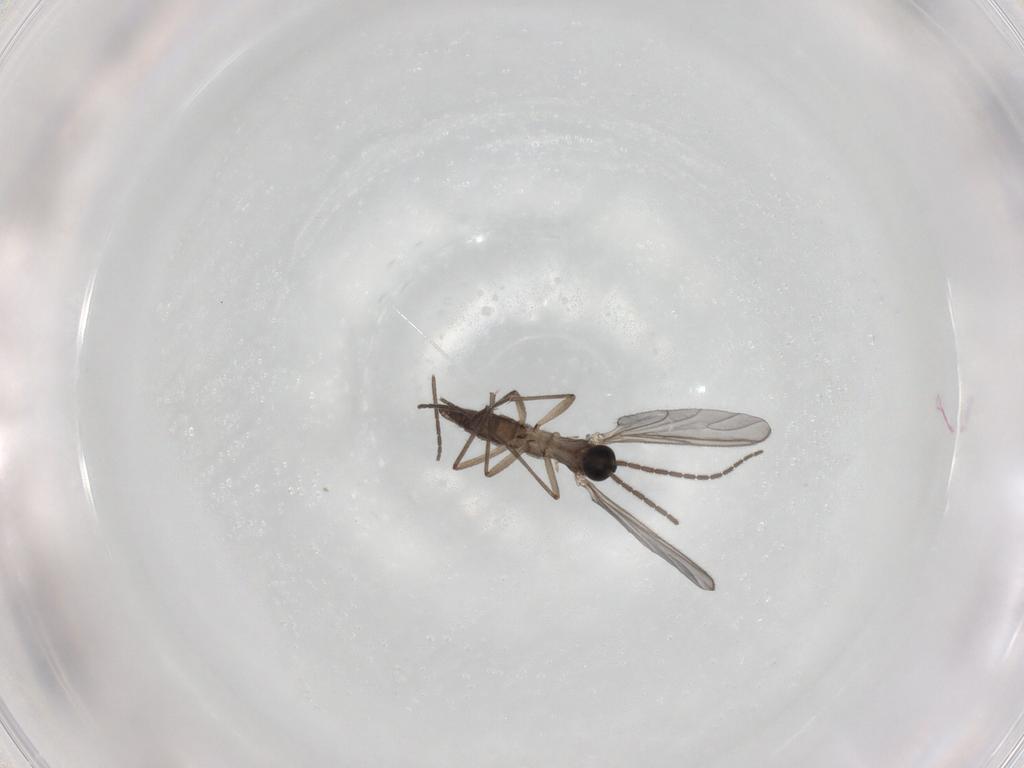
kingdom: Animalia
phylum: Arthropoda
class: Insecta
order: Diptera
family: Sciaridae
